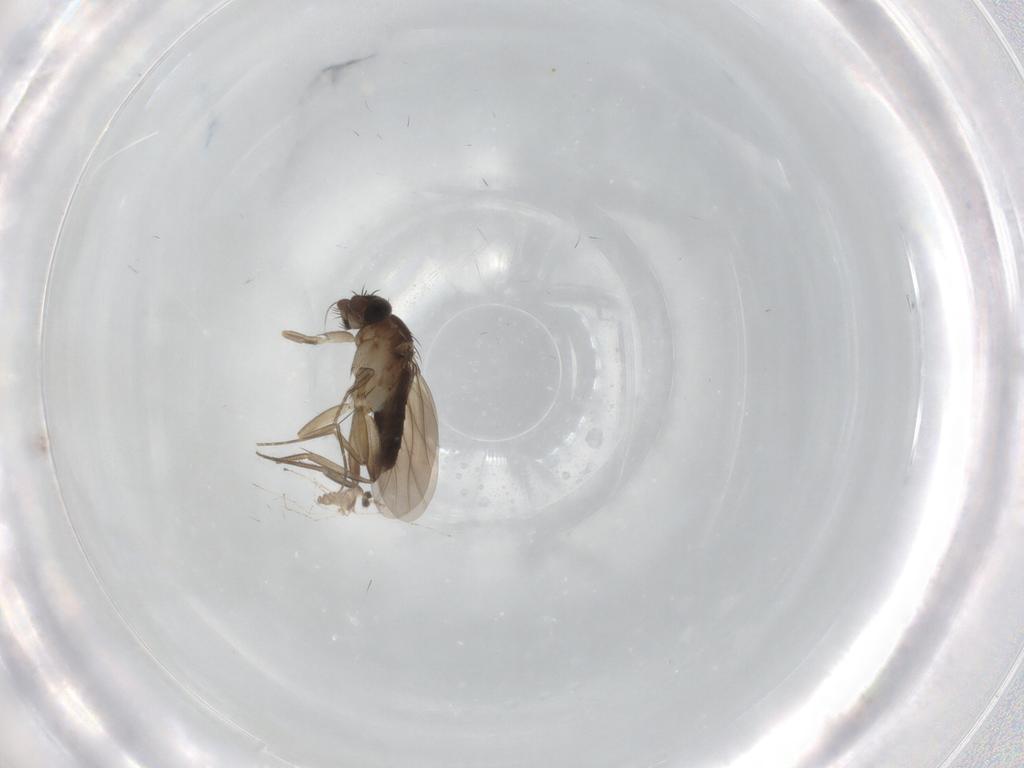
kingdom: Animalia
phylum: Arthropoda
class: Insecta
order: Diptera
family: Phoridae
